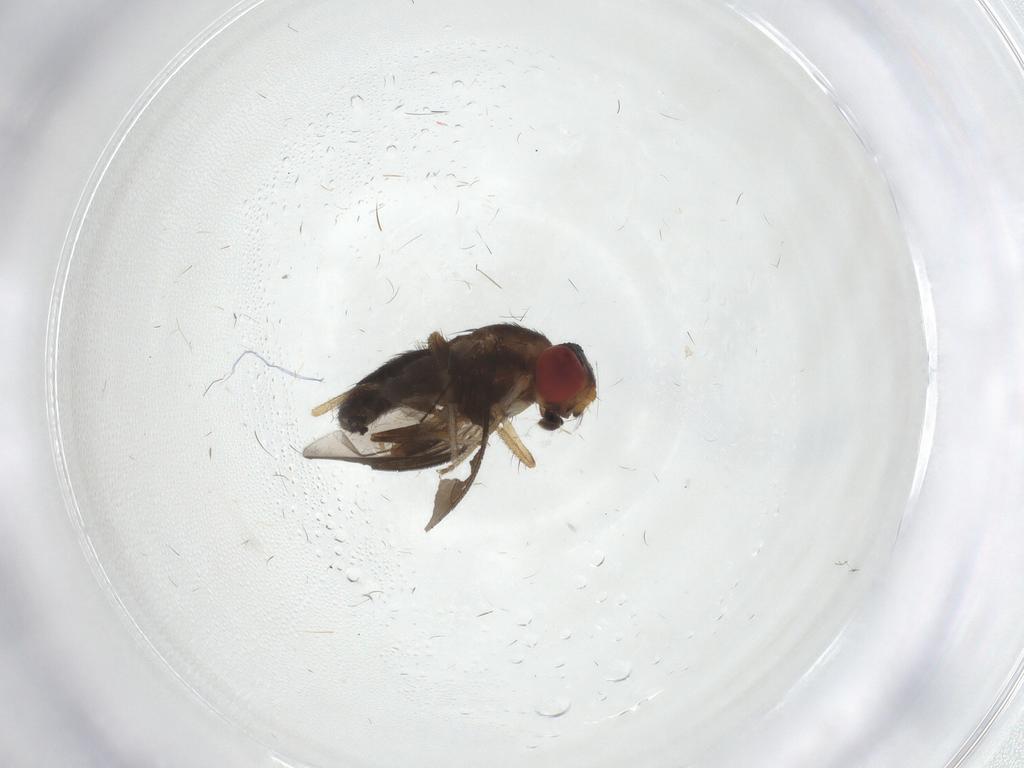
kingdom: Animalia
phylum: Arthropoda
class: Insecta
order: Diptera
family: Drosophilidae
